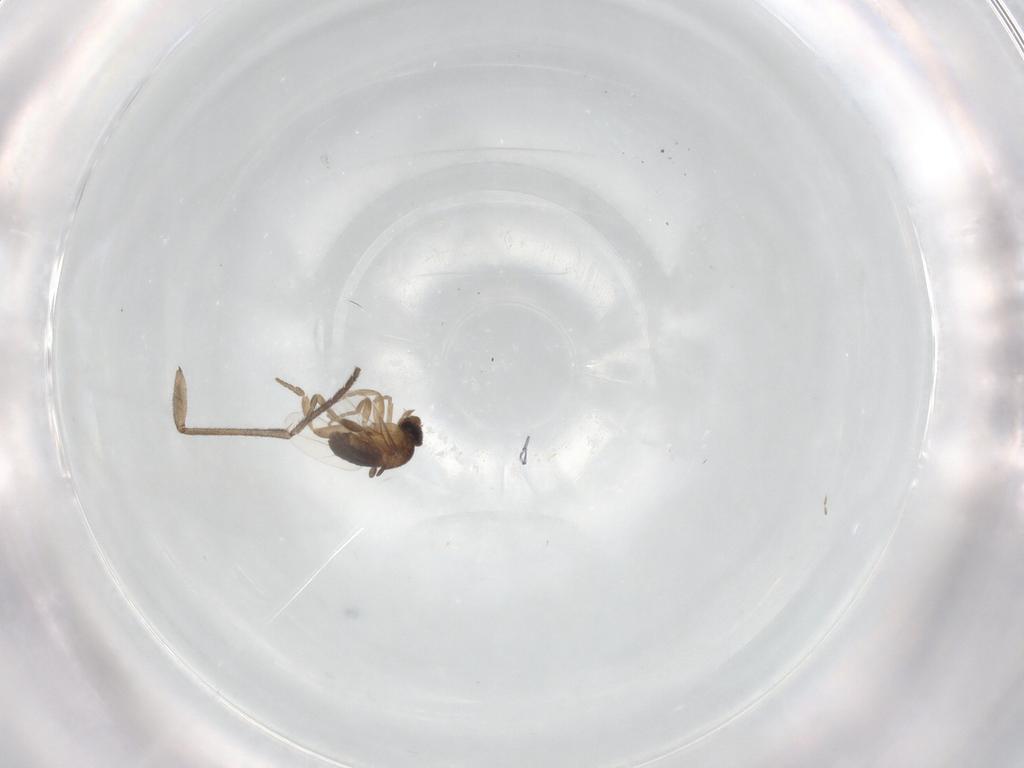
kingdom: Animalia
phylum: Arthropoda
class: Insecta
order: Diptera
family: Sciaridae
